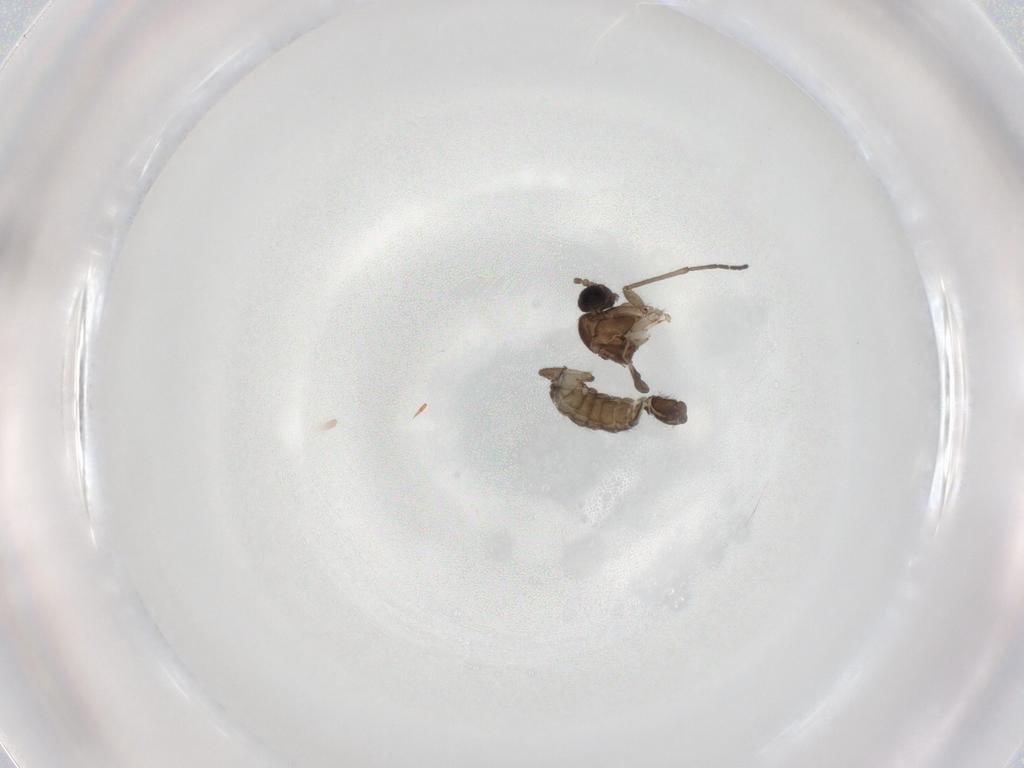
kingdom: Animalia
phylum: Arthropoda
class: Insecta
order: Diptera
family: Sciaridae
